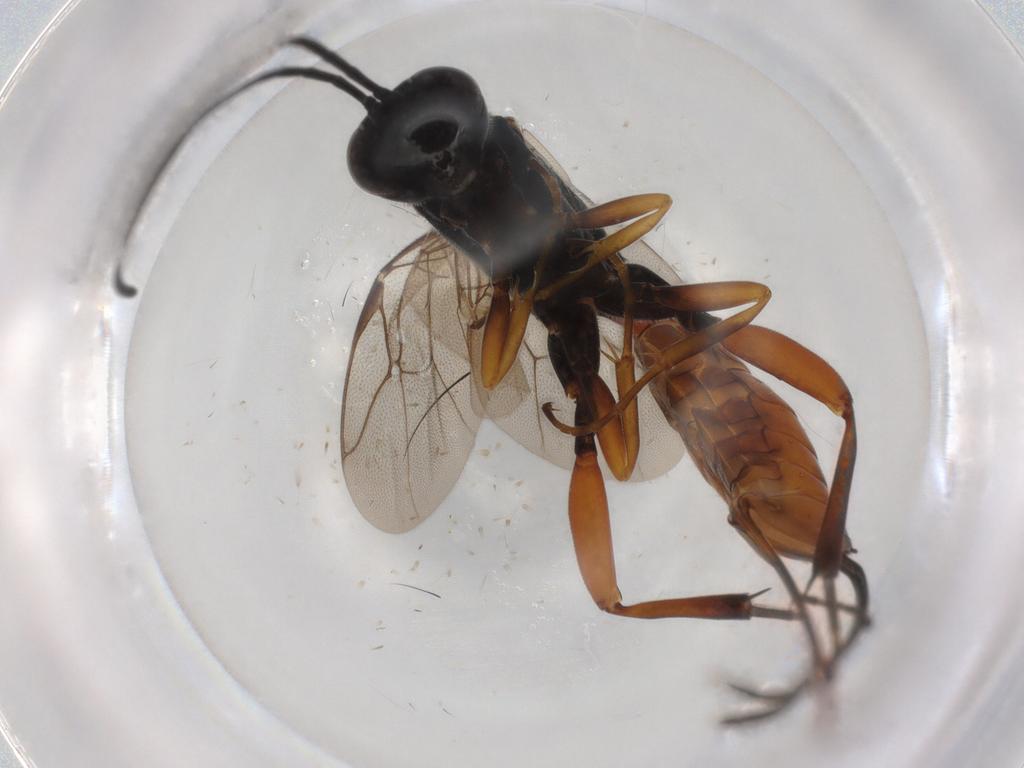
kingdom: Animalia
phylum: Arthropoda
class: Insecta
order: Hymenoptera
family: Ichneumonidae
